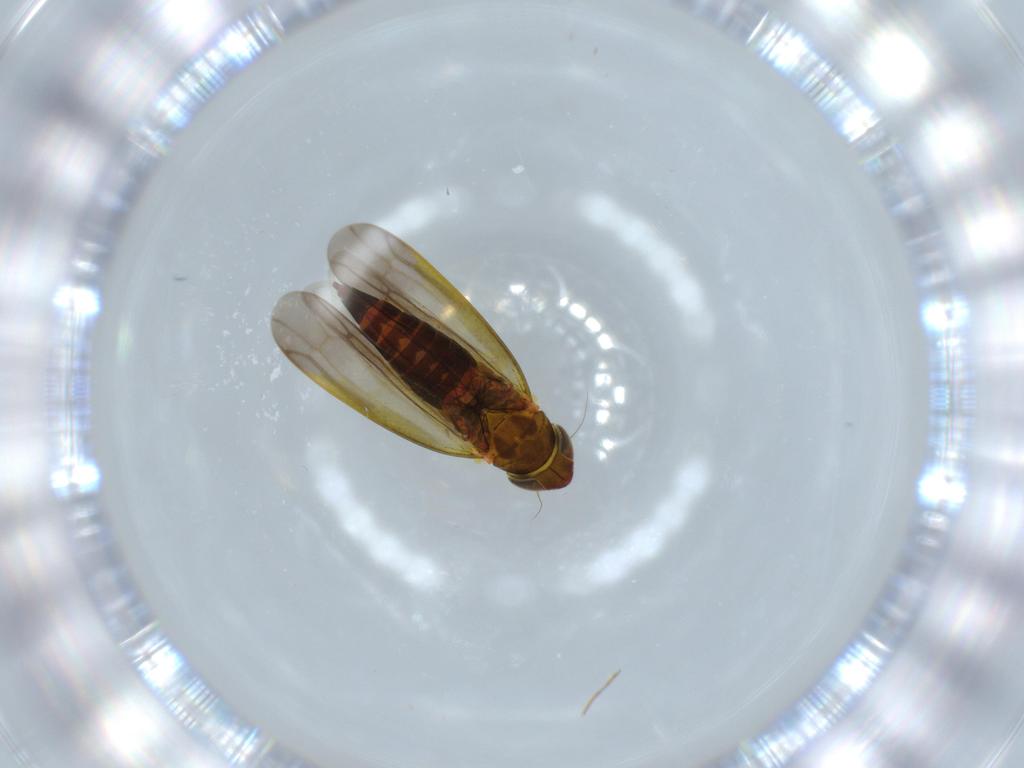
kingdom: Animalia
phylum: Arthropoda
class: Insecta
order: Hemiptera
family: Cicadellidae
